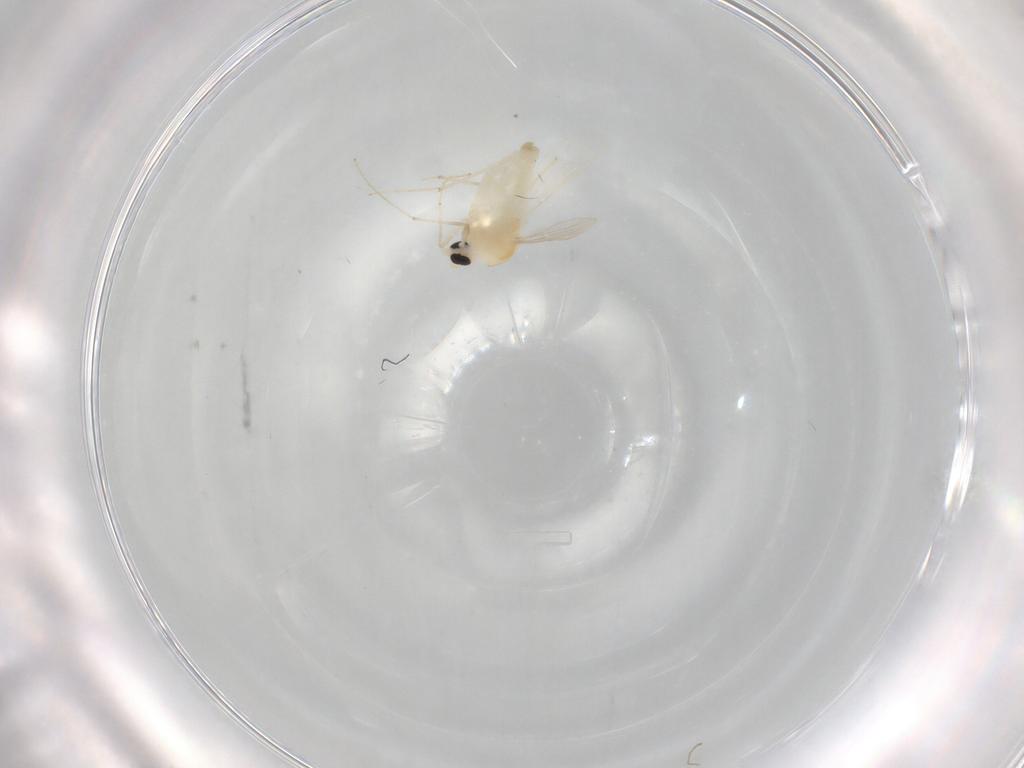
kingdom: Animalia
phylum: Arthropoda
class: Insecta
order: Diptera
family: Chironomidae
